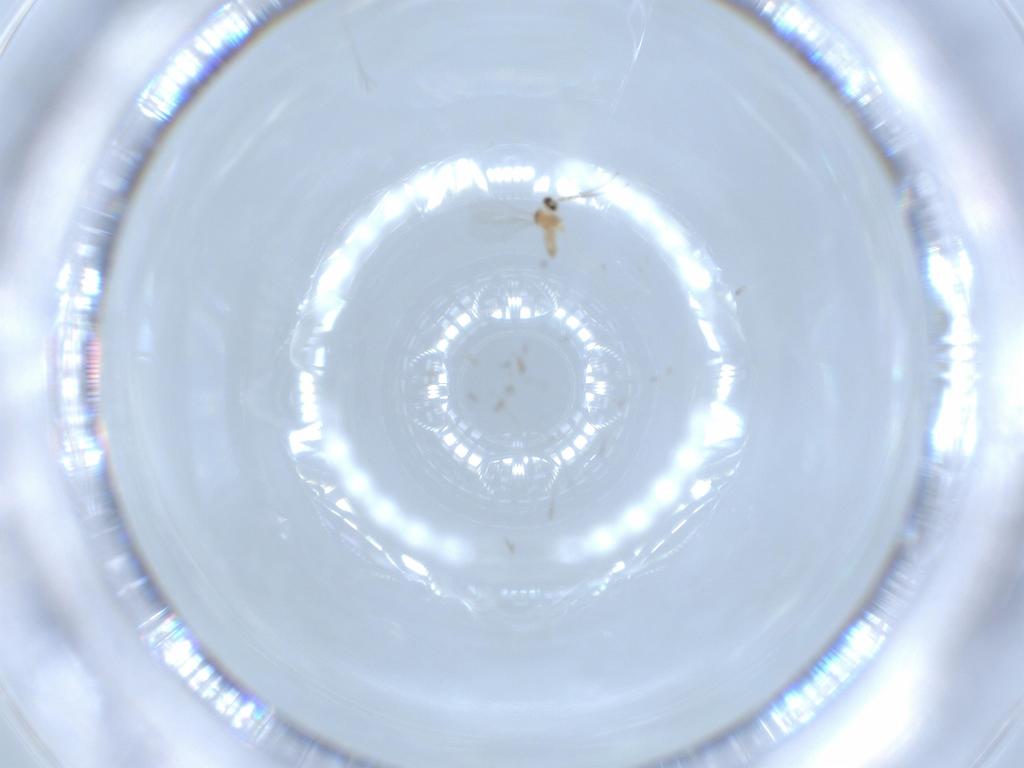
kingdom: Animalia
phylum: Arthropoda
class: Insecta
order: Diptera
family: Cecidomyiidae
